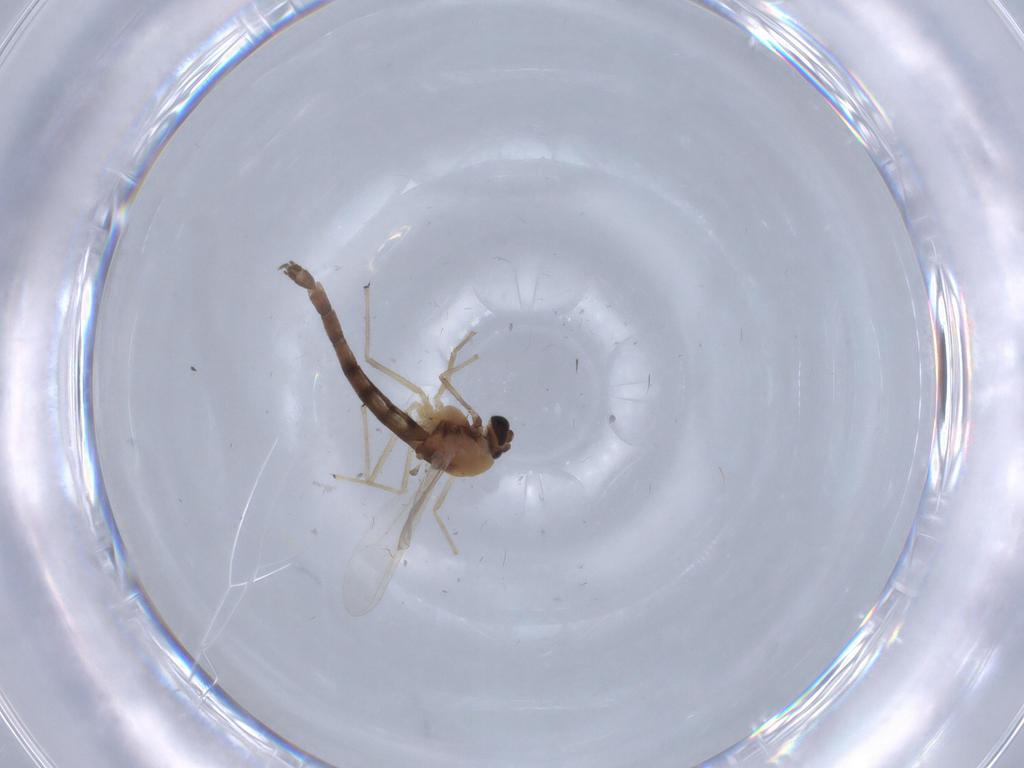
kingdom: Animalia
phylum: Arthropoda
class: Insecta
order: Diptera
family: Chironomidae
